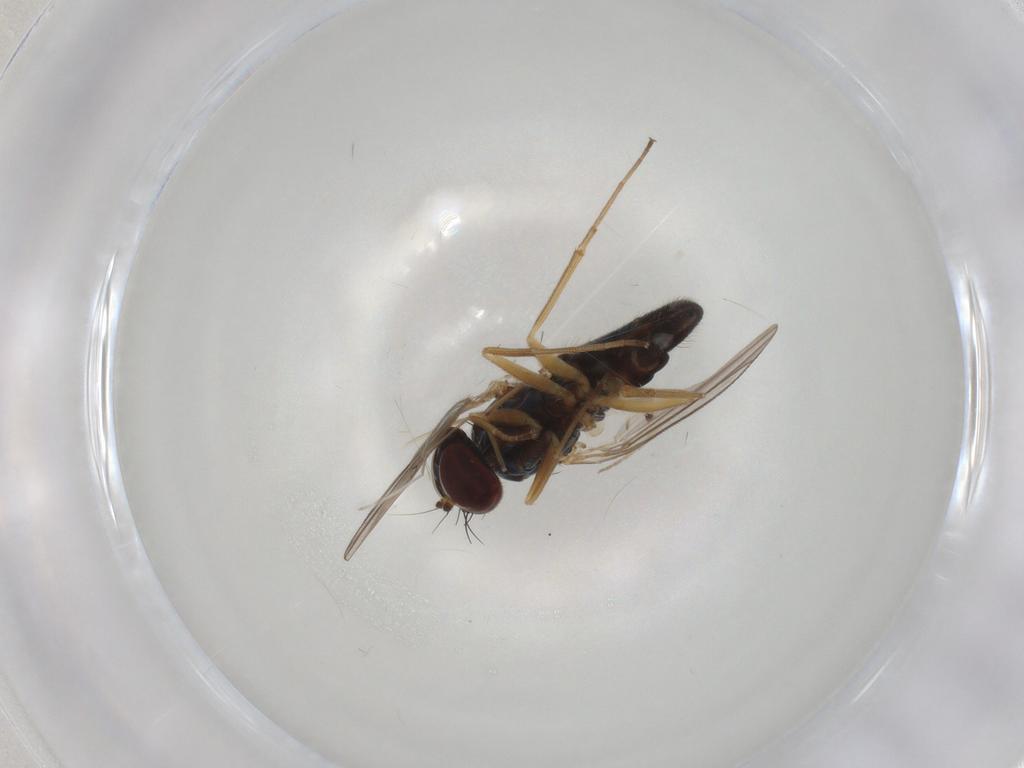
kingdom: Animalia
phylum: Arthropoda
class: Insecta
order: Diptera
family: Dolichopodidae
